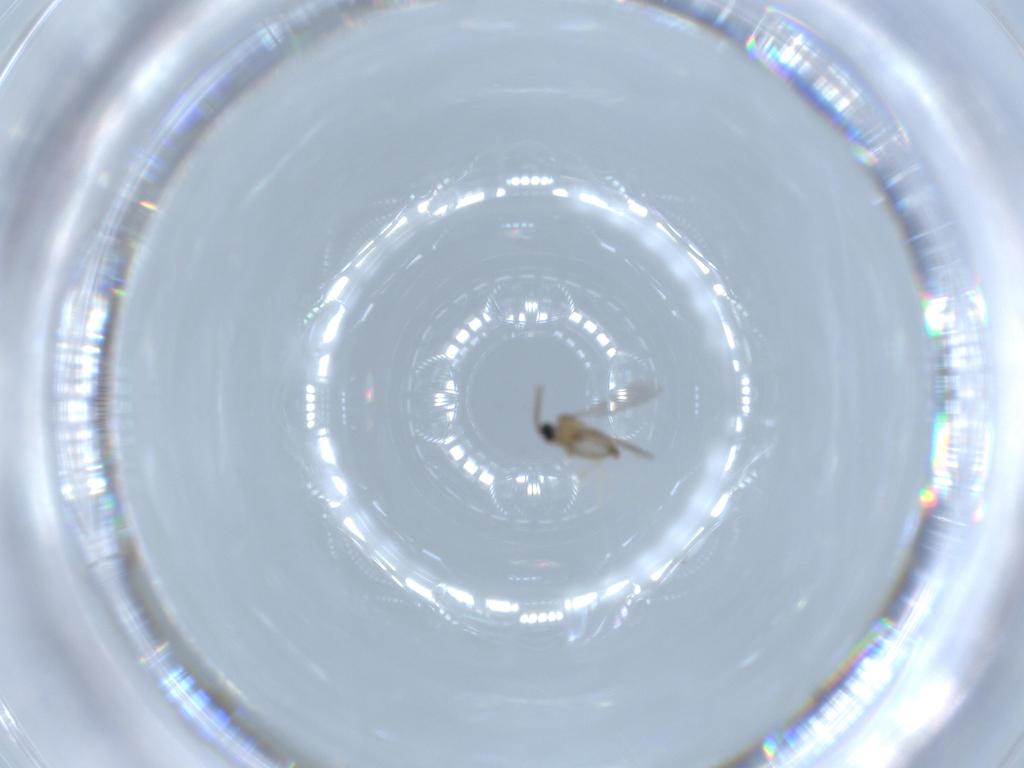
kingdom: Animalia
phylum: Arthropoda
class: Insecta
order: Diptera
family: Cecidomyiidae
